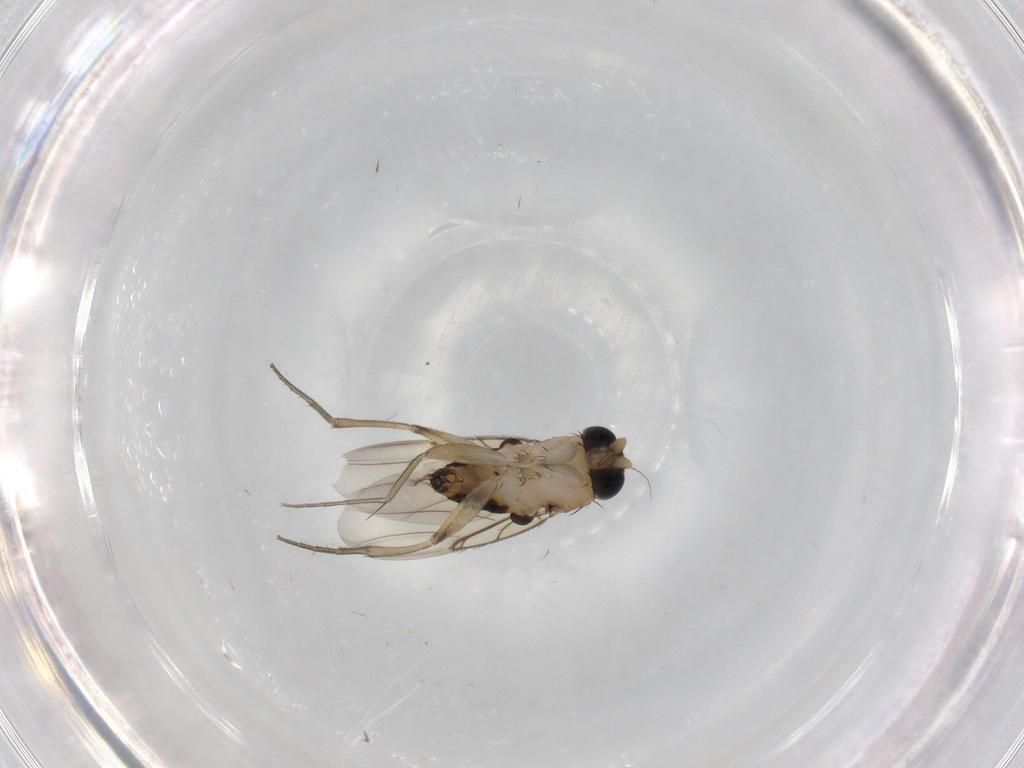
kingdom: Animalia
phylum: Arthropoda
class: Insecta
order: Diptera
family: Phoridae
